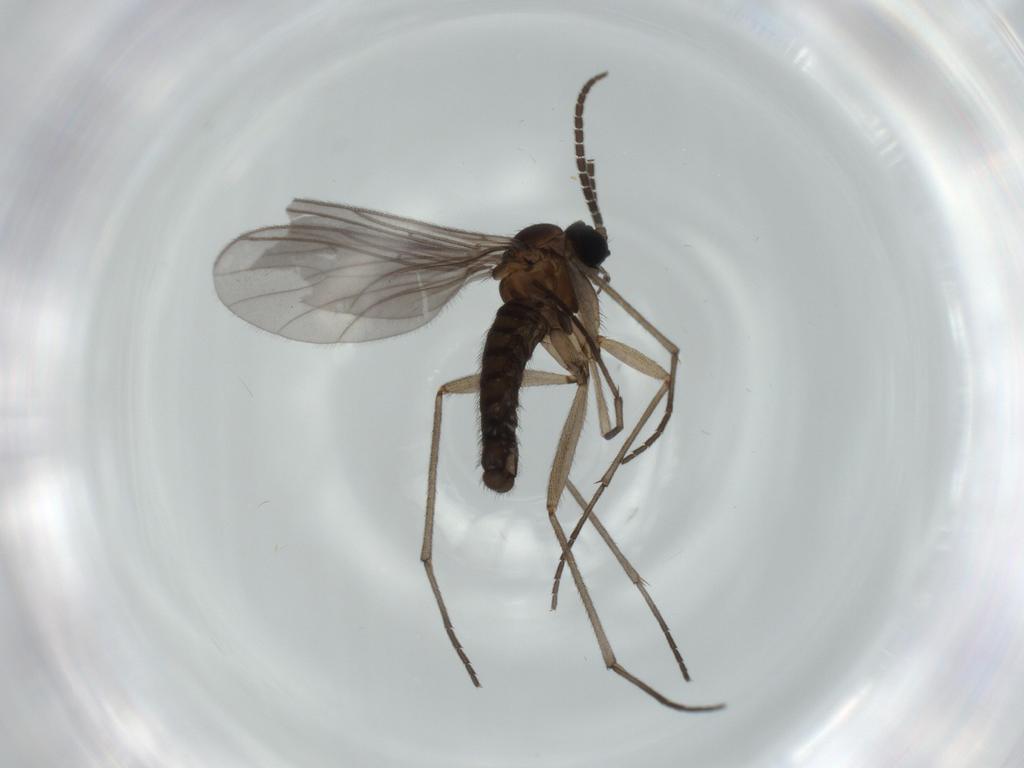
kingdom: Animalia
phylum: Arthropoda
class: Insecta
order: Diptera
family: Sciaridae
